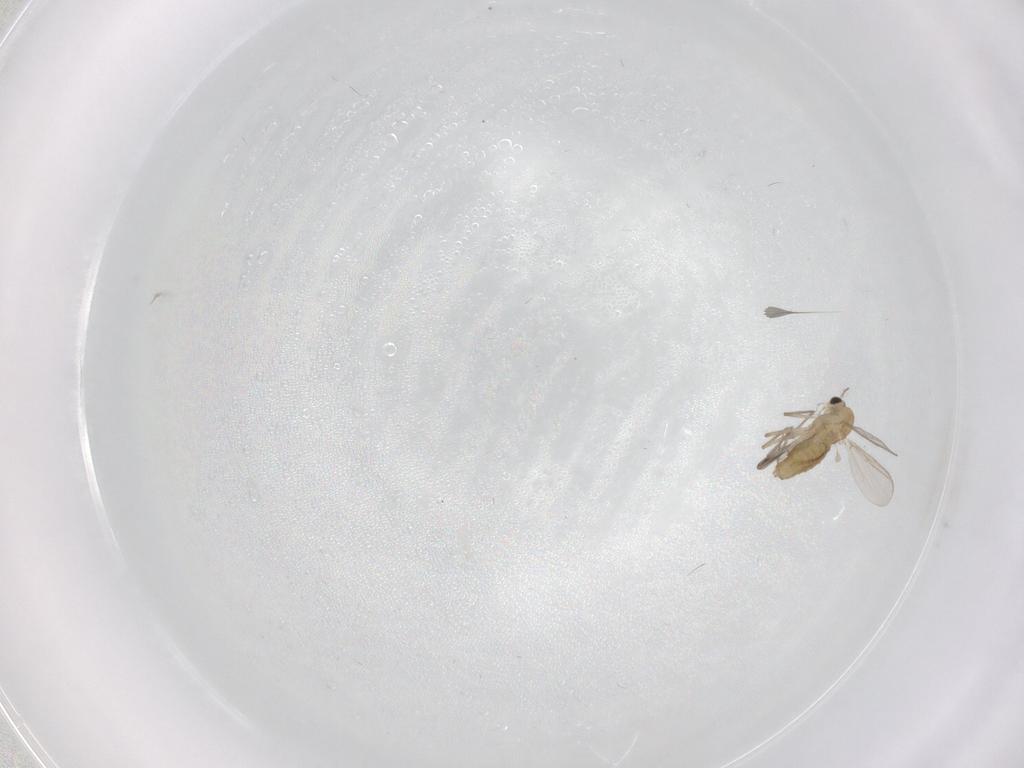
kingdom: Animalia
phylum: Arthropoda
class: Insecta
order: Diptera
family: Chironomidae
